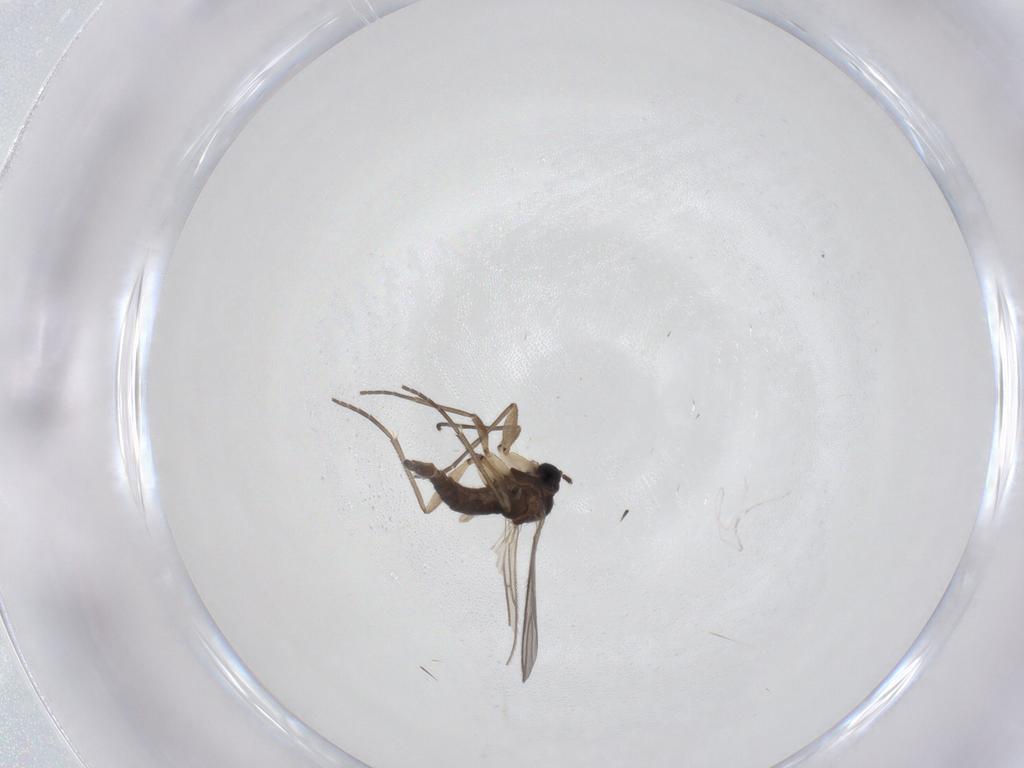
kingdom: Animalia
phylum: Arthropoda
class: Insecta
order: Diptera
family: Sciaridae
